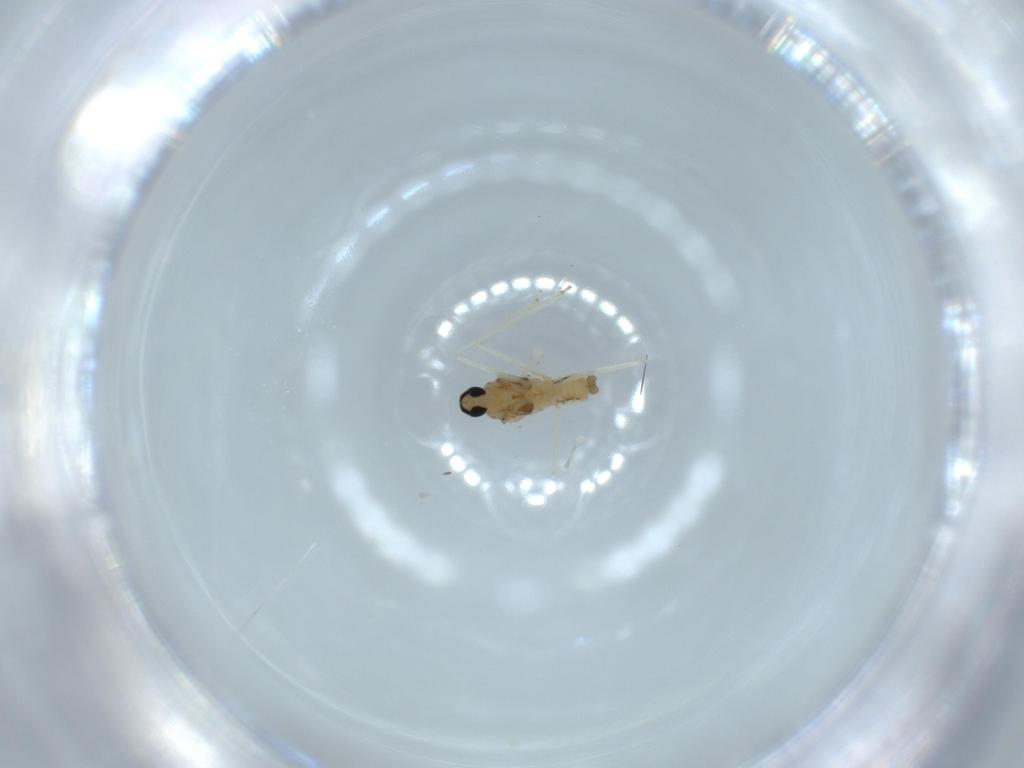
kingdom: Animalia
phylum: Arthropoda
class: Insecta
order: Diptera
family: Cecidomyiidae
